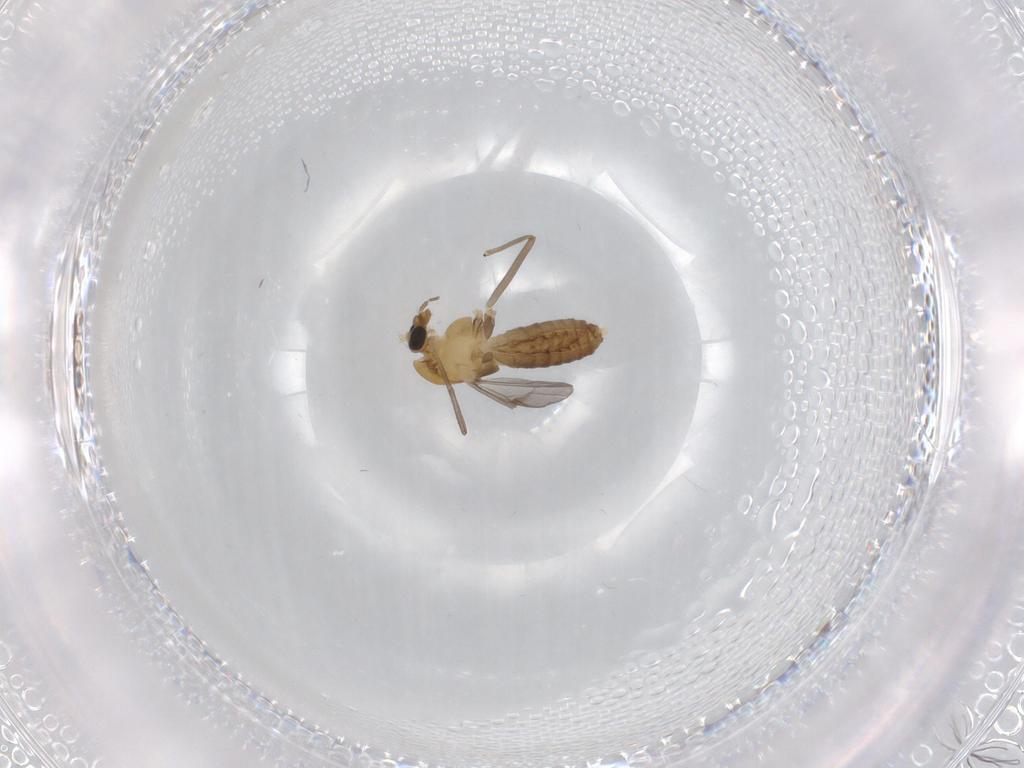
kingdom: Animalia
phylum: Arthropoda
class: Insecta
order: Diptera
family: Chironomidae
